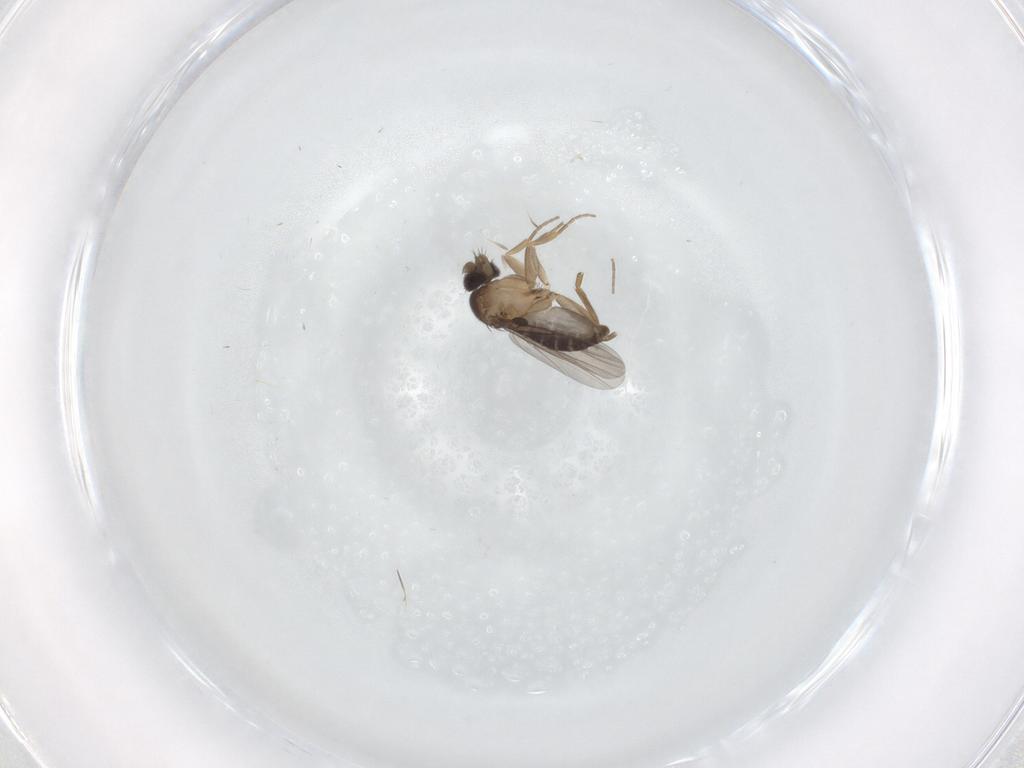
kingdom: Animalia
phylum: Arthropoda
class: Insecta
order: Diptera
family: Phoridae
